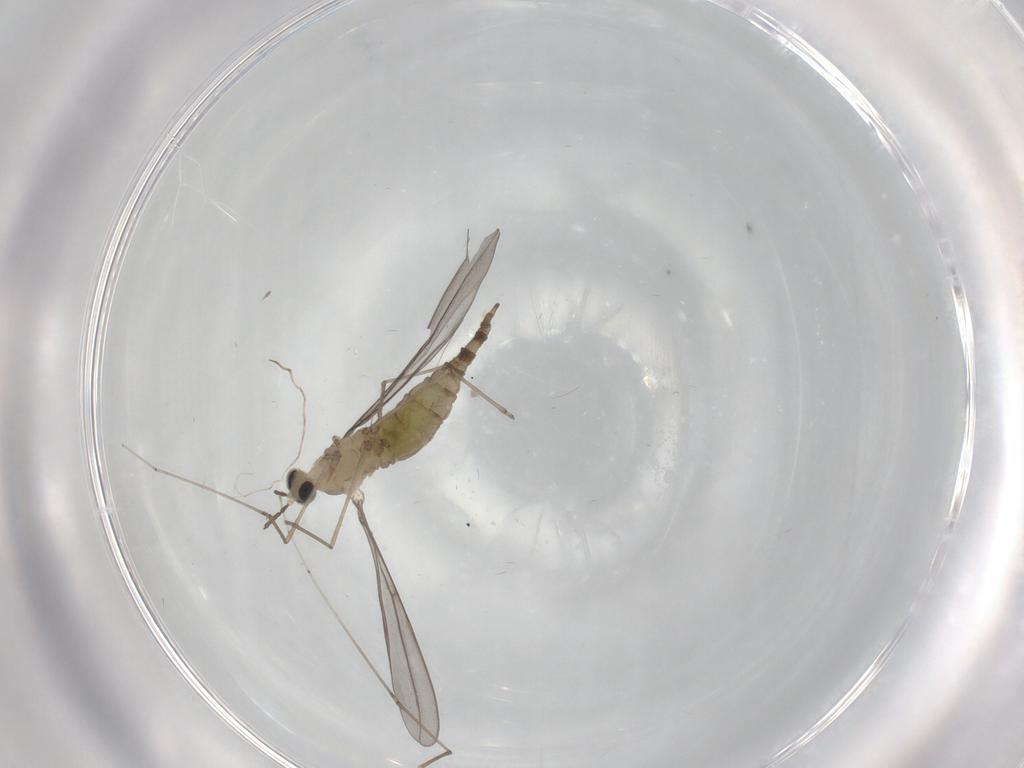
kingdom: Animalia
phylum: Arthropoda
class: Insecta
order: Diptera
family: Cecidomyiidae
